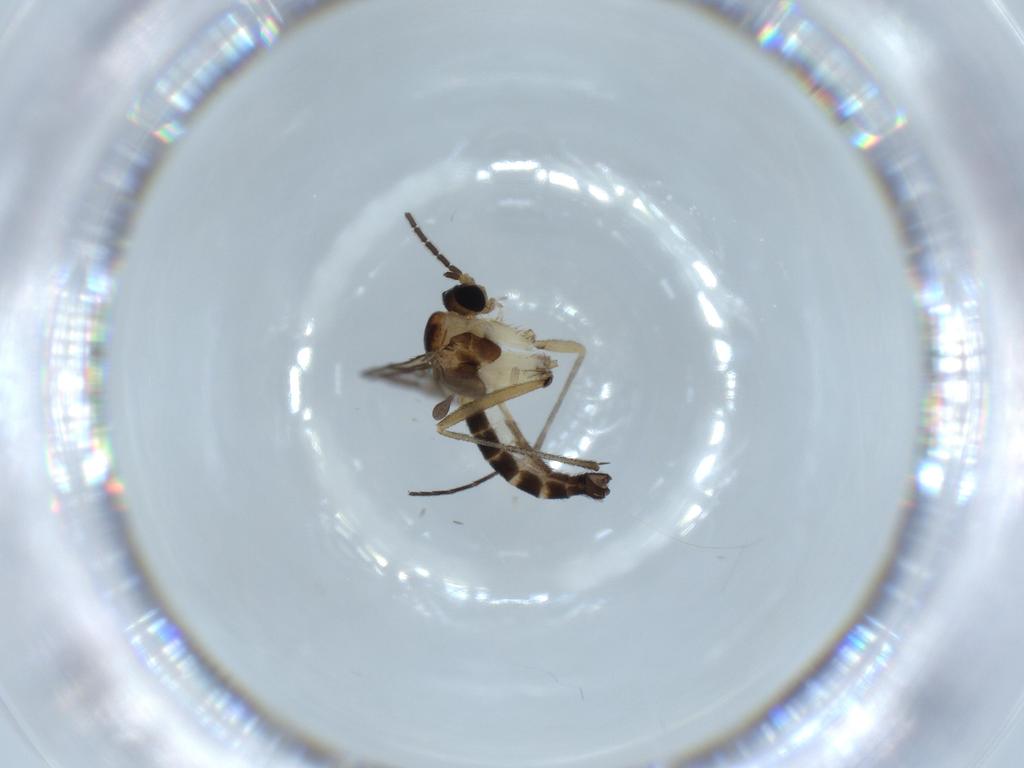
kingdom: Animalia
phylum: Arthropoda
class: Insecta
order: Diptera
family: Sciaridae
